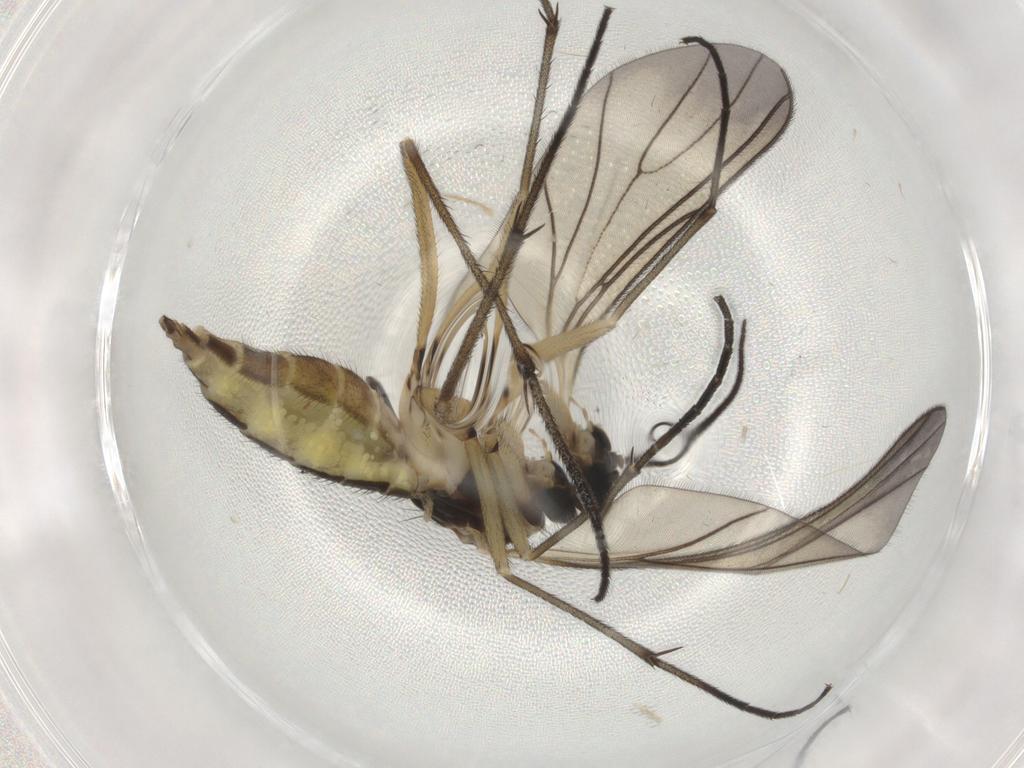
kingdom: Animalia
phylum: Arthropoda
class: Insecta
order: Diptera
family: Sciaridae
